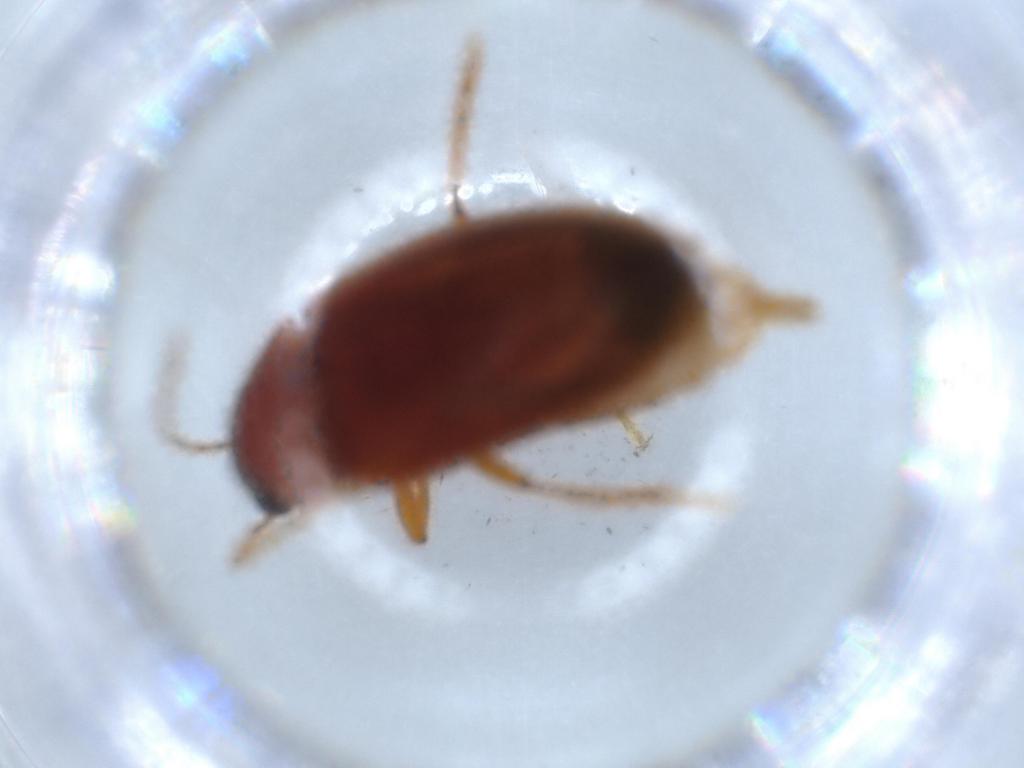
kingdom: Animalia
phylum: Arthropoda
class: Insecta
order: Coleoptera
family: Ptilodactylidae
